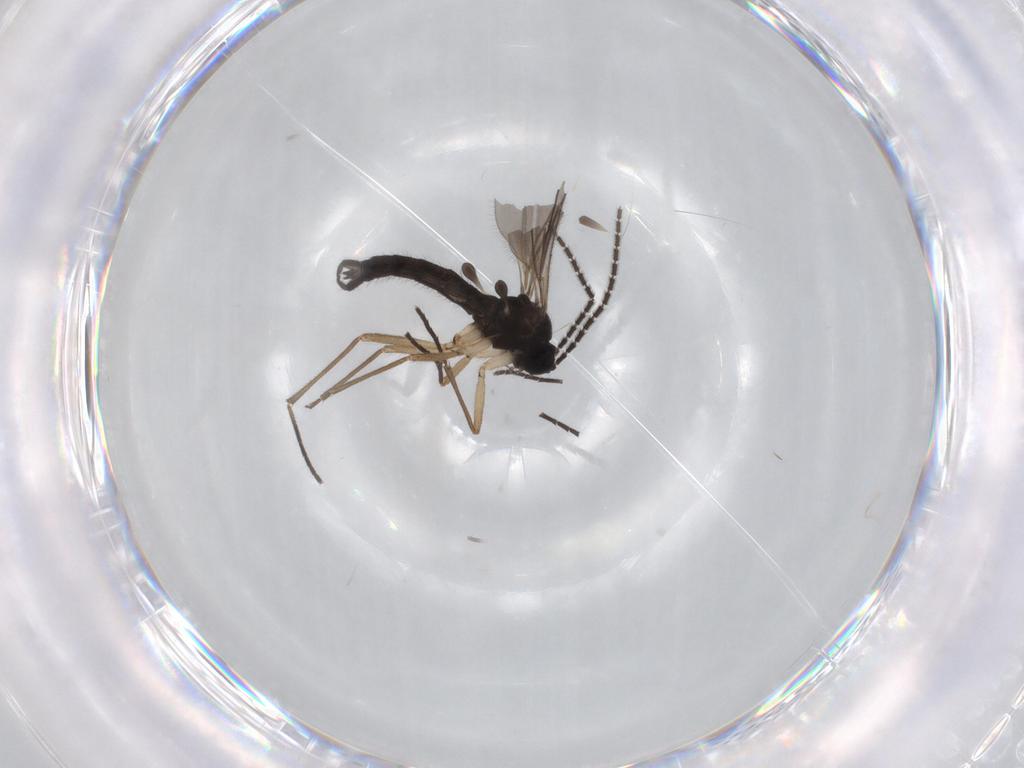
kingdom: Animalia
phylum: Arthropoda
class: Insecta
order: Diptera
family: Sciaridae
